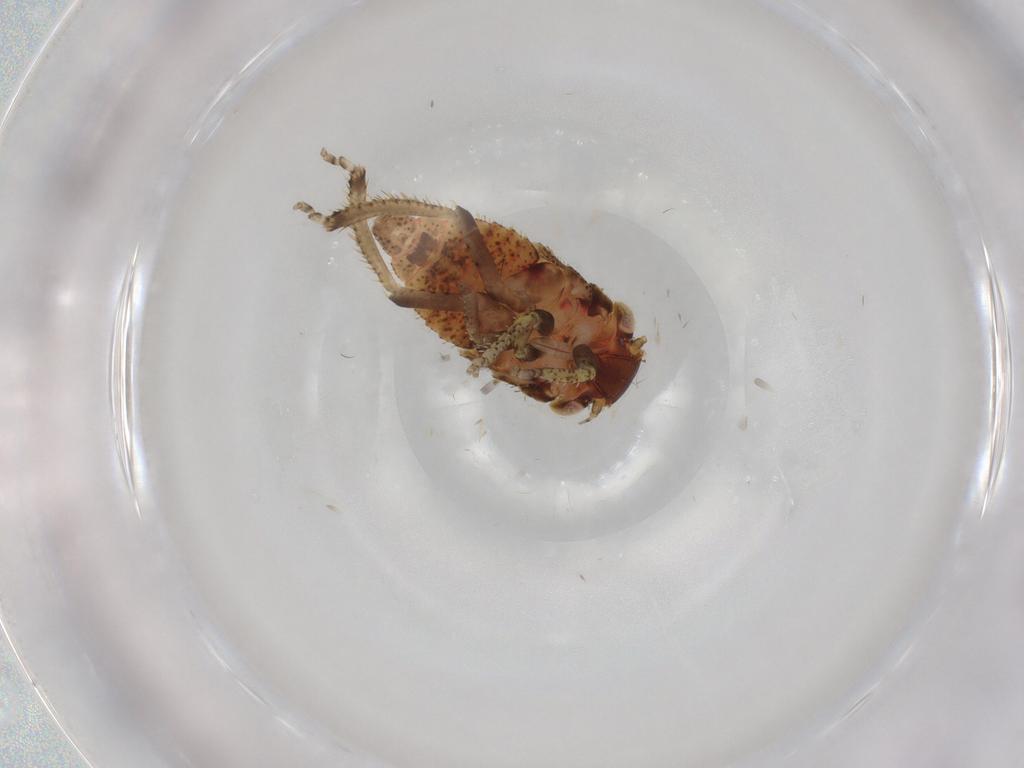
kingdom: Animalia
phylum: Arthropoda
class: Insecta
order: Hemiptera
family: Cicadellidae
